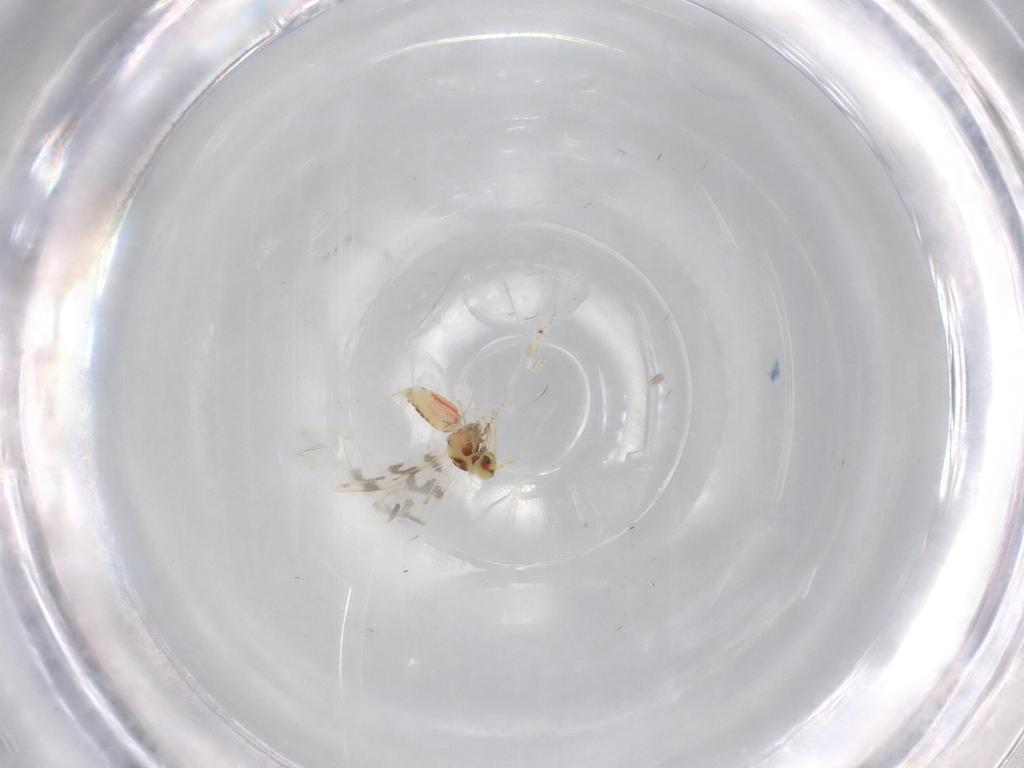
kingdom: Animalia
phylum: Arthropoda
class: Insecta
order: Hemiptera
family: Aleyrodidae
